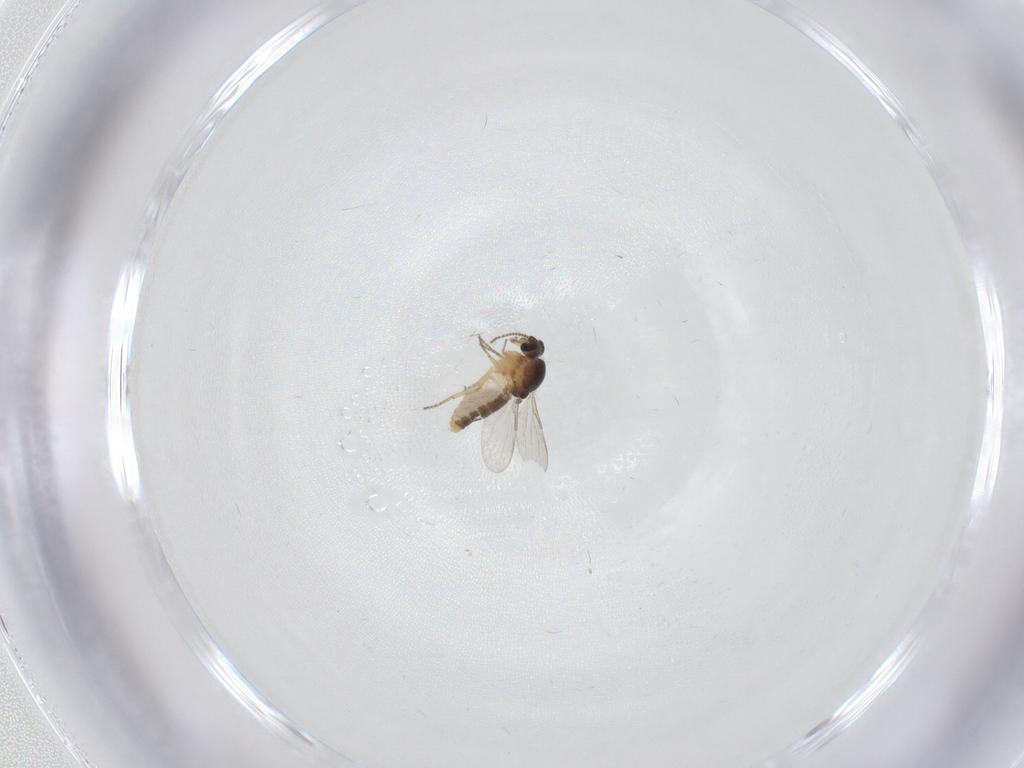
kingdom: Animalia
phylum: Arthropoda
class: Insecta
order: Diptera
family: Ceratopogonidae
